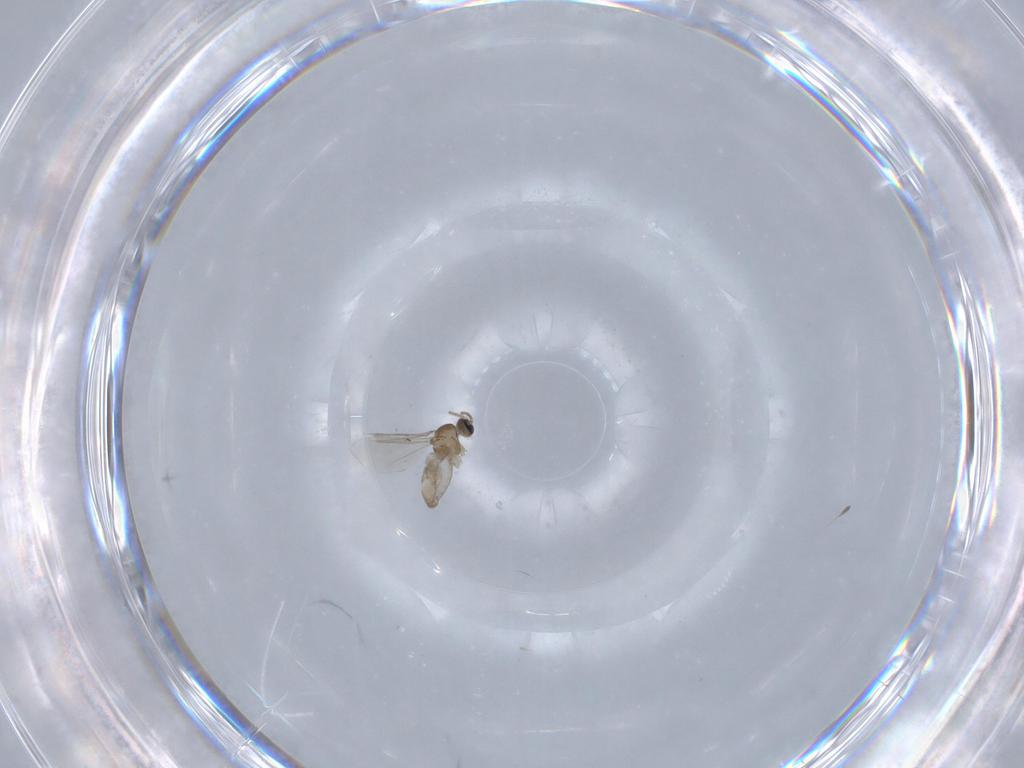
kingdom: Animalia
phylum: Arthropoda
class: Insecta
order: Diptera
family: Cecidomyiidae
